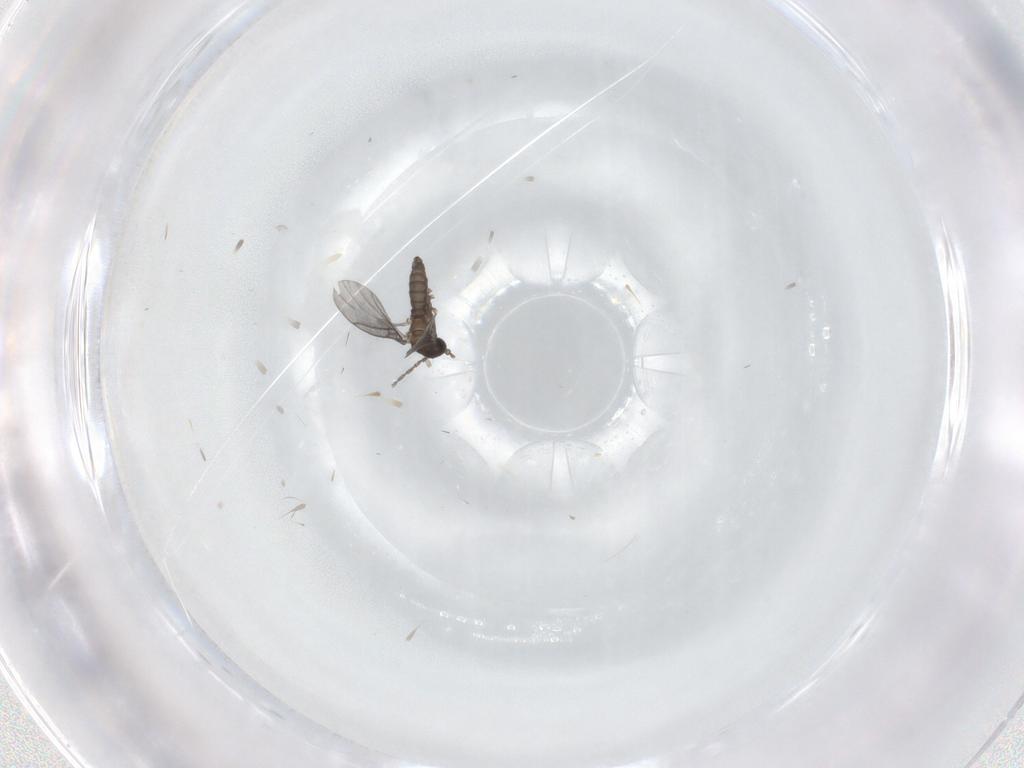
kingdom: Animalia
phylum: Arthropoda
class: Insecta
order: Diptera
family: Sciaridae
